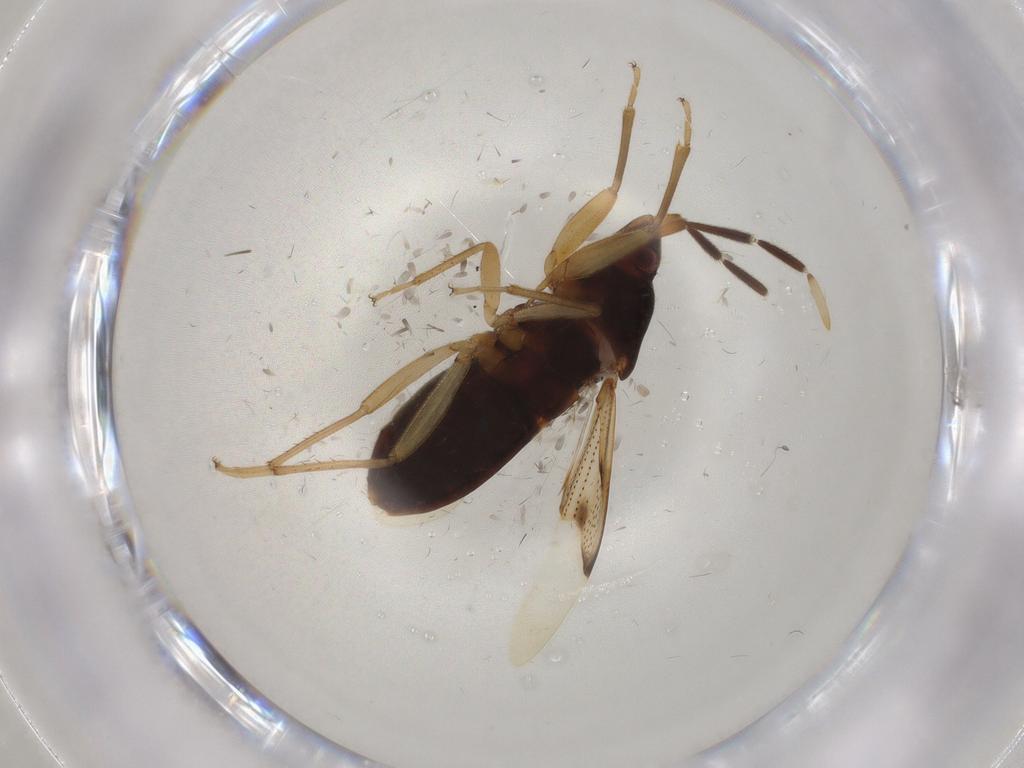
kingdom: Animalia
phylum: Arthropoda
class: Insecta
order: Hemiptera
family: Rhyparochromidae
